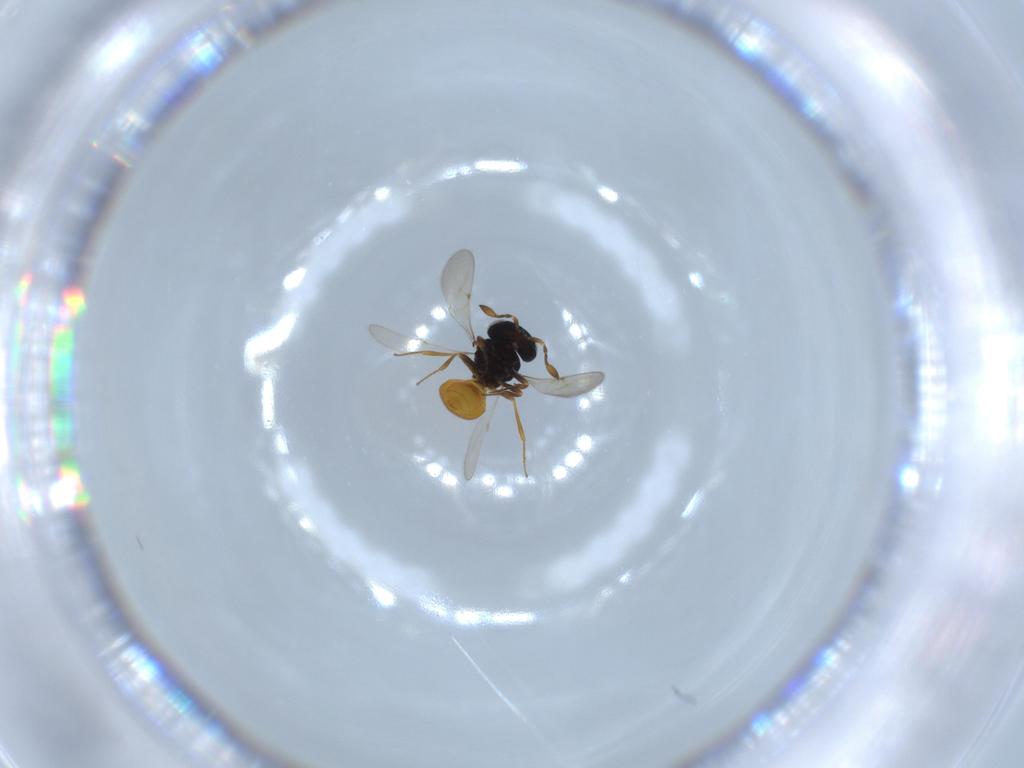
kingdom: Animalia
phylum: Arthropoda
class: Insecta
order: Hymenoptera
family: Scelionidae
